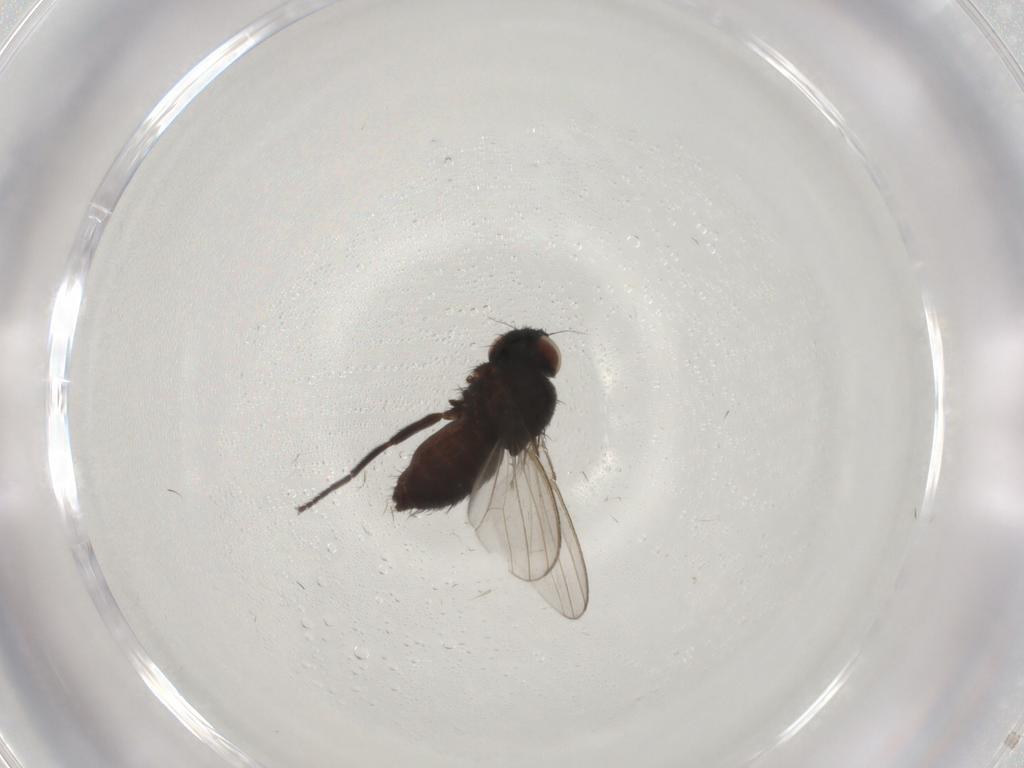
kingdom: Animalia
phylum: Arthropoda
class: Insecta
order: Diptera
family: Milichiidae
